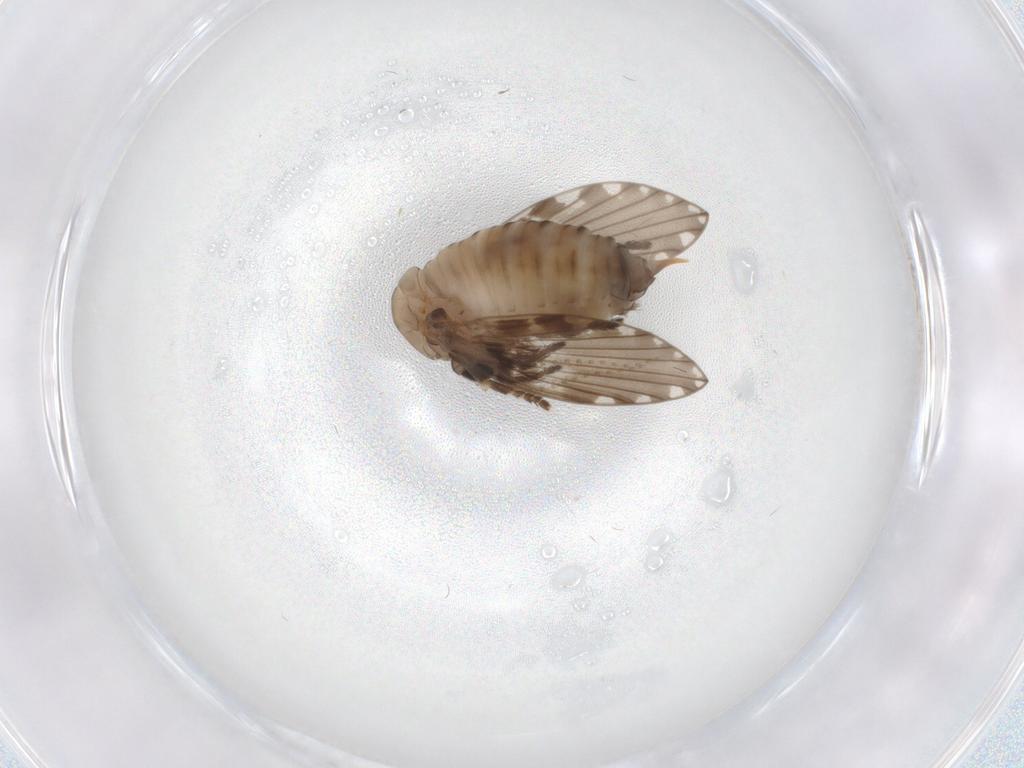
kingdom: Animalia
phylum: Arthropoda
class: Insecta
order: Diptera
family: Psychodidae
